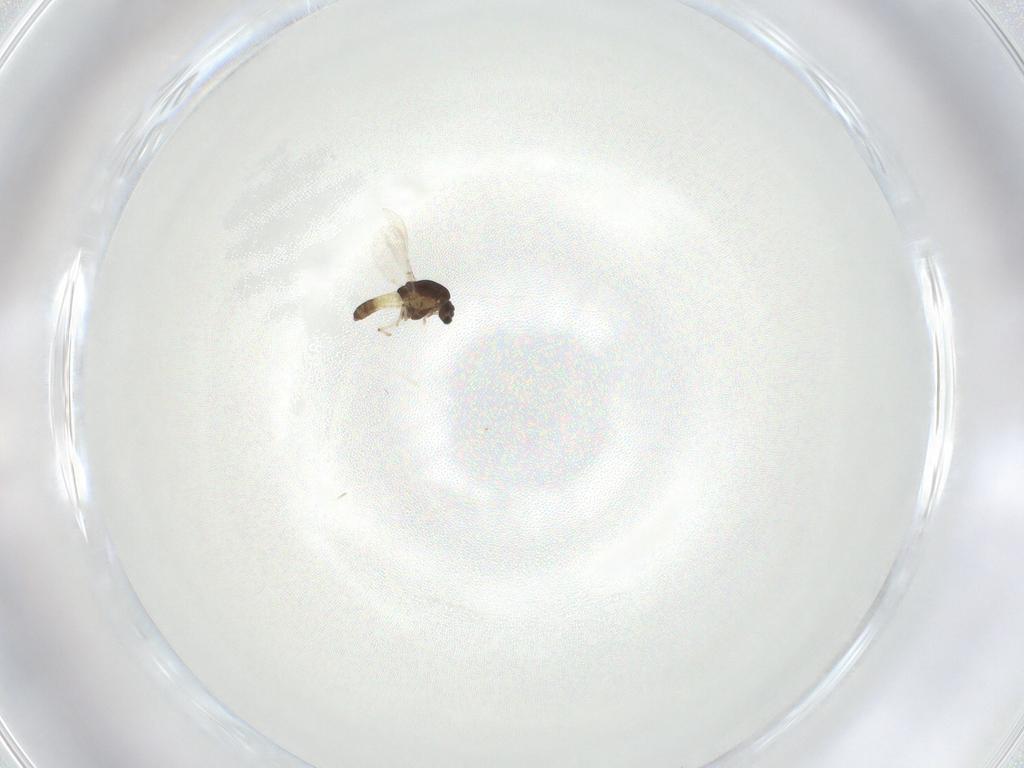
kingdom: Animalia
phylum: Arthropoda
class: Insecta
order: Diptera
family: Chironomidae
